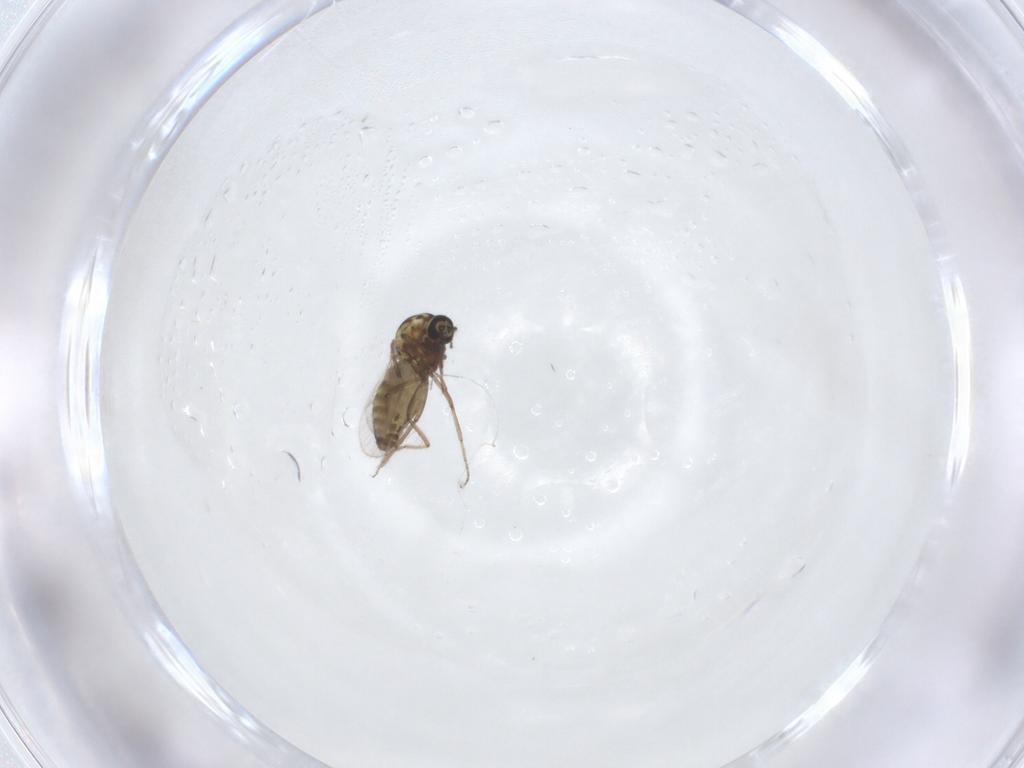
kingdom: Animalia
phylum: Arthropoda
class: Insecta
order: Diptera
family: Ceratopogonidae
